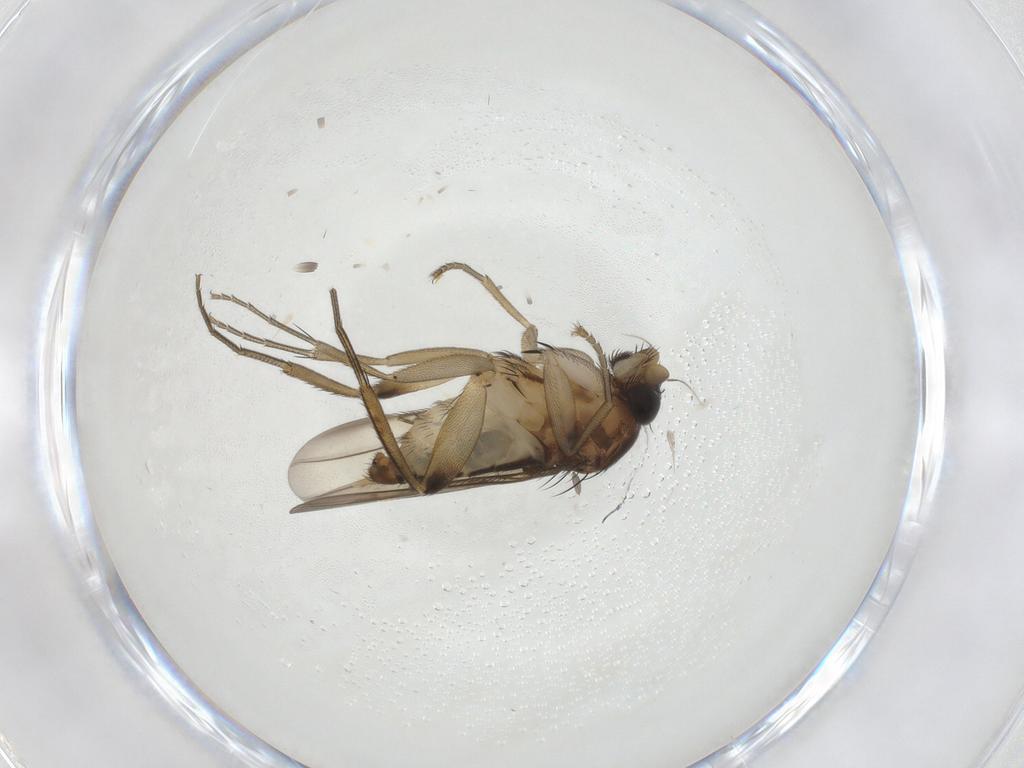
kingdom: Animalia
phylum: Arthropoda
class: Insecta
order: Diptera
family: Phoridae
